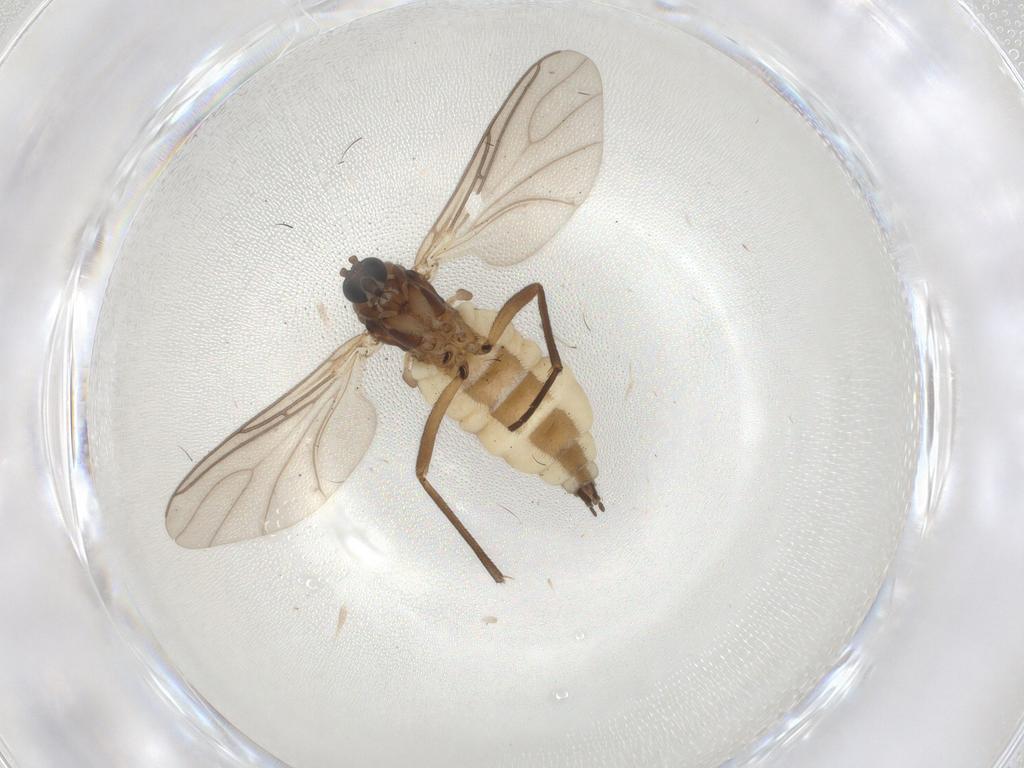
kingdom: Animalia
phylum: Arthropoda
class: Insecta
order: Diptera
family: Sciaridae
